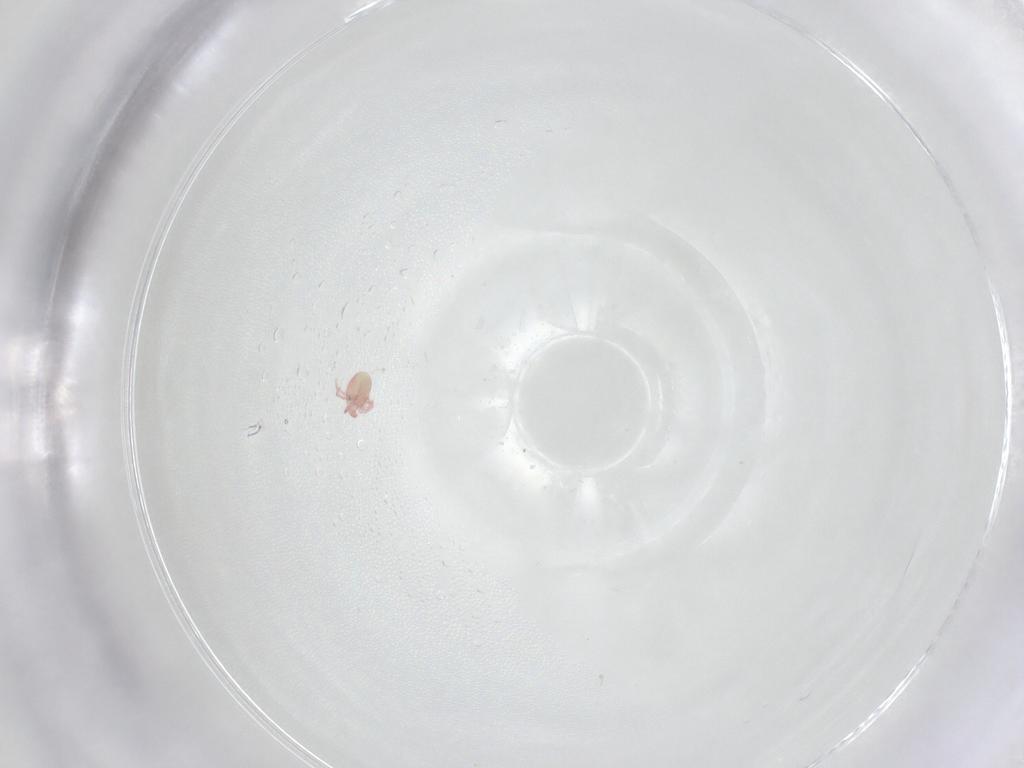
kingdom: Animalia
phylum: Arthropoda
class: Arachnida
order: Trombidiformes
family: Pionidae
